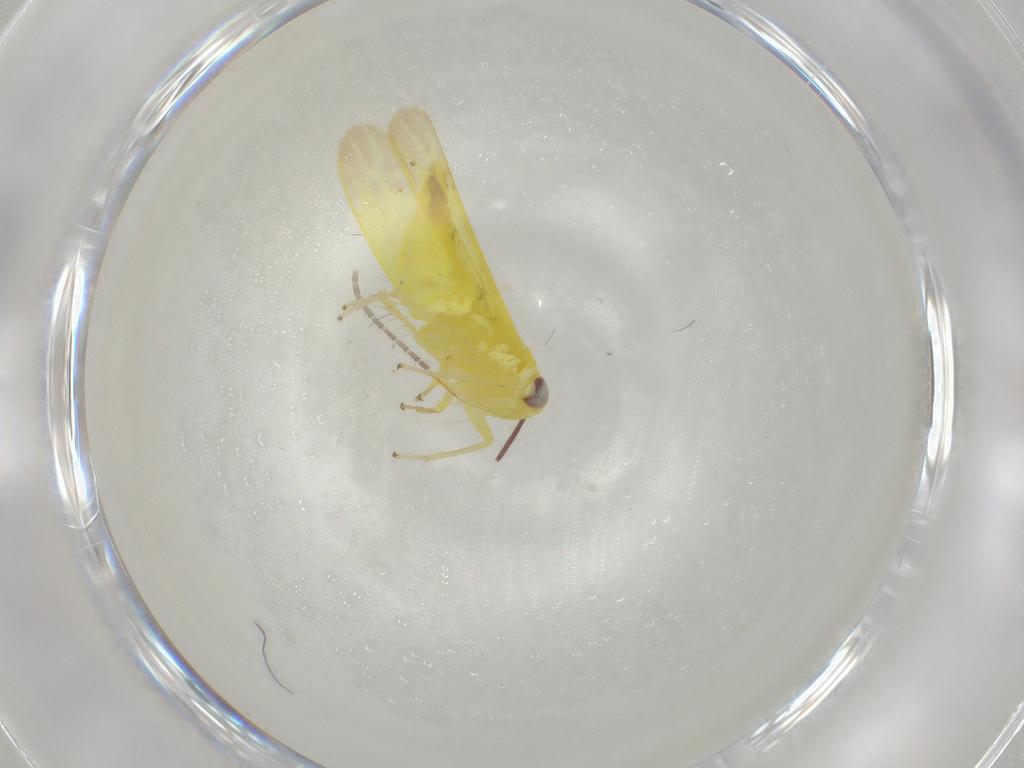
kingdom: Animalia
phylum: Arthropoda
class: Insecta
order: Hemiptera
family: Cicadellidae
